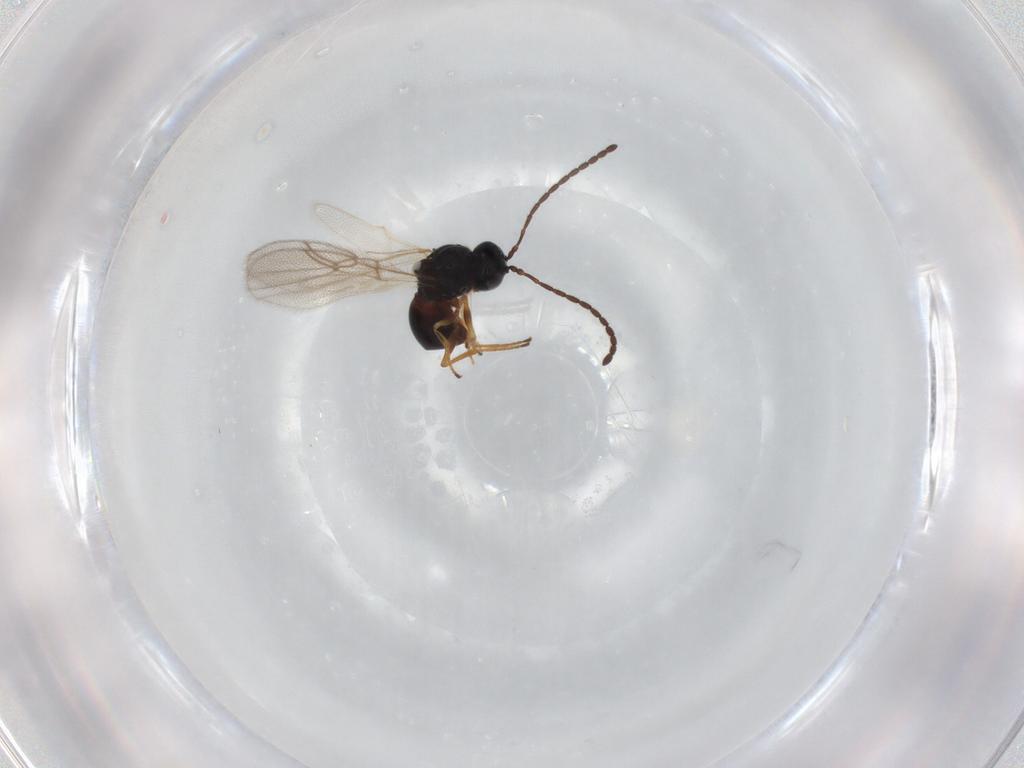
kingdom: Animalia
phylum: Arthropoda
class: Insecta
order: Hymenoptera
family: Figitidae
